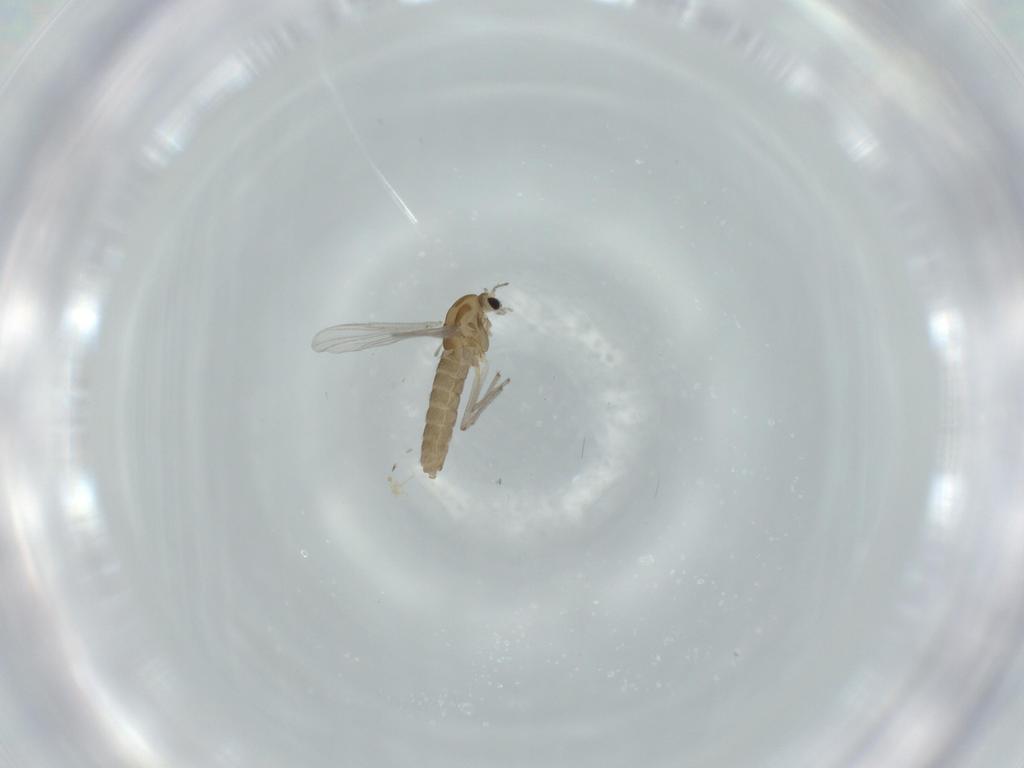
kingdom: Animalia
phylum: Arthropoda
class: Insecta
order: Diptera
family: Chironomidae
